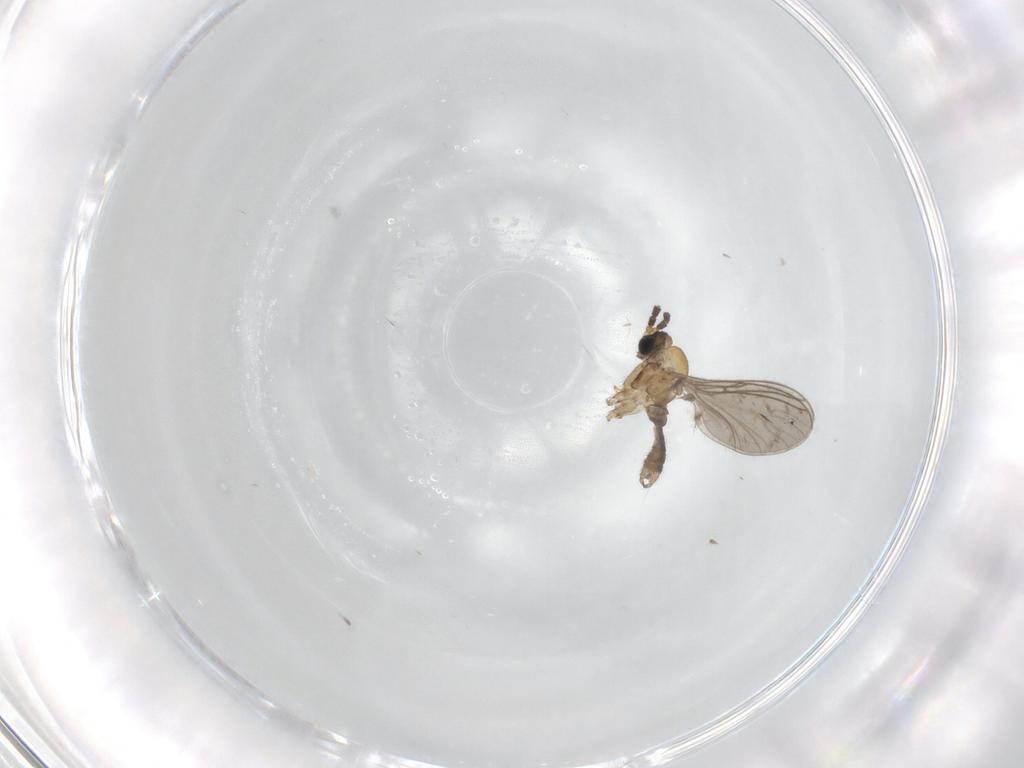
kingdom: Animalia
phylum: Arthropoda
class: Insecta
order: Diptera
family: Sciaridae
